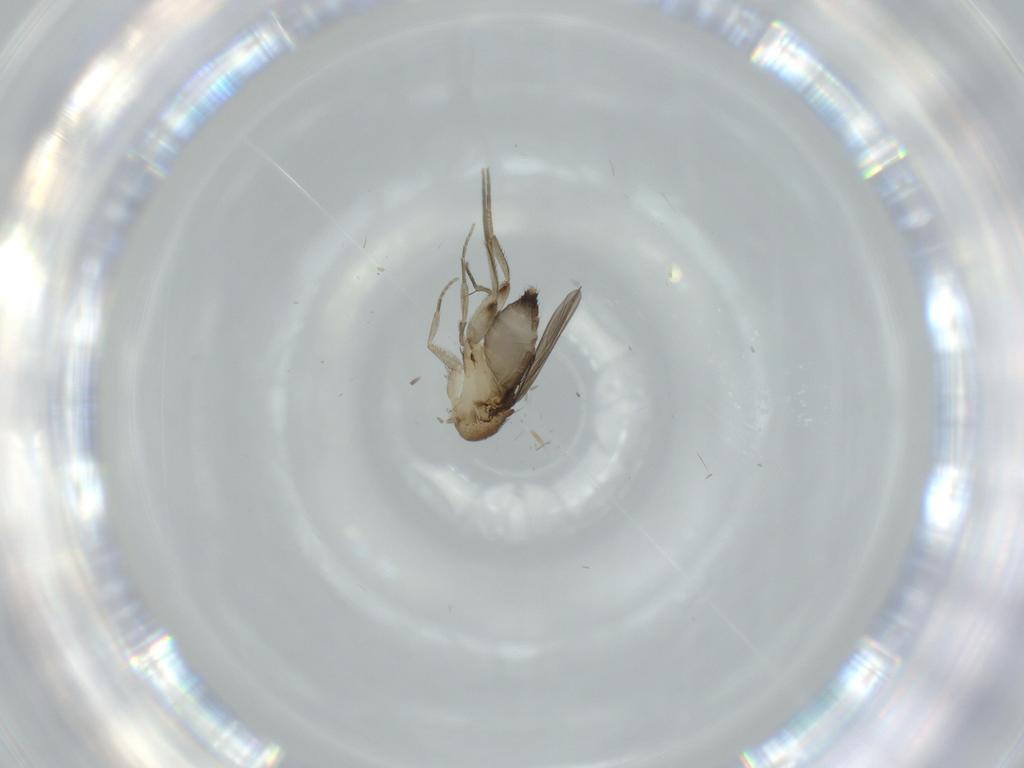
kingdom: Animalia
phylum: Arthropoda
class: Insecta
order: Diptera
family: Phoridae
